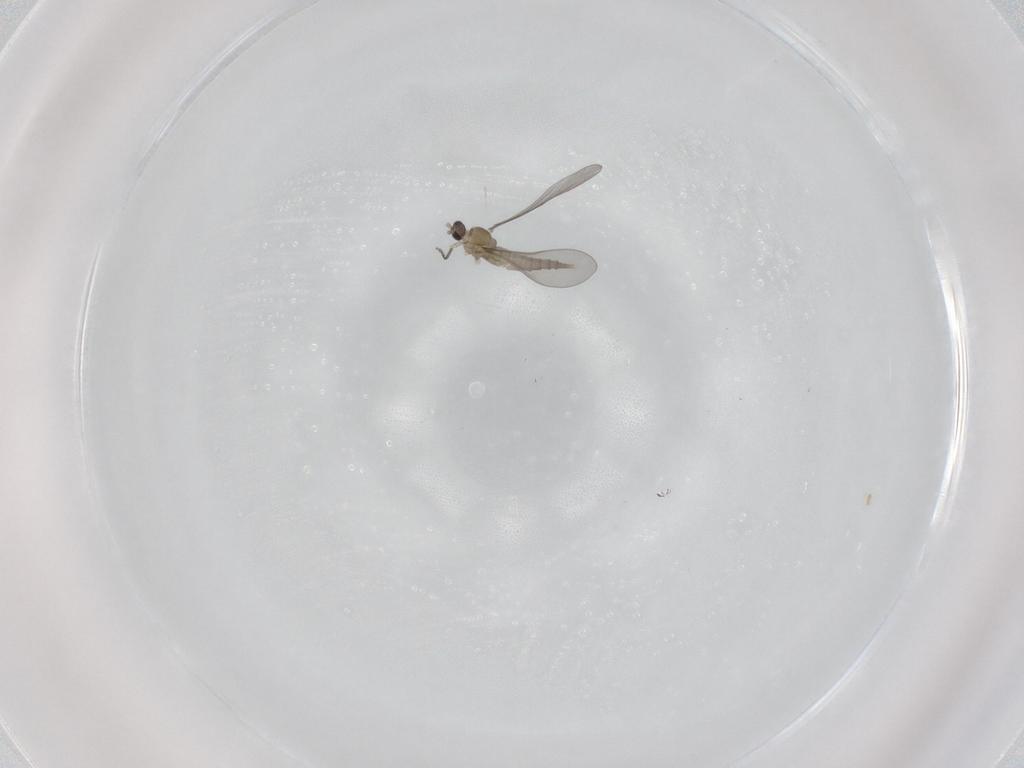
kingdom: Animalia
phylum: Arthropoda
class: Insecta
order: Diptera
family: Cecidomyiidae
